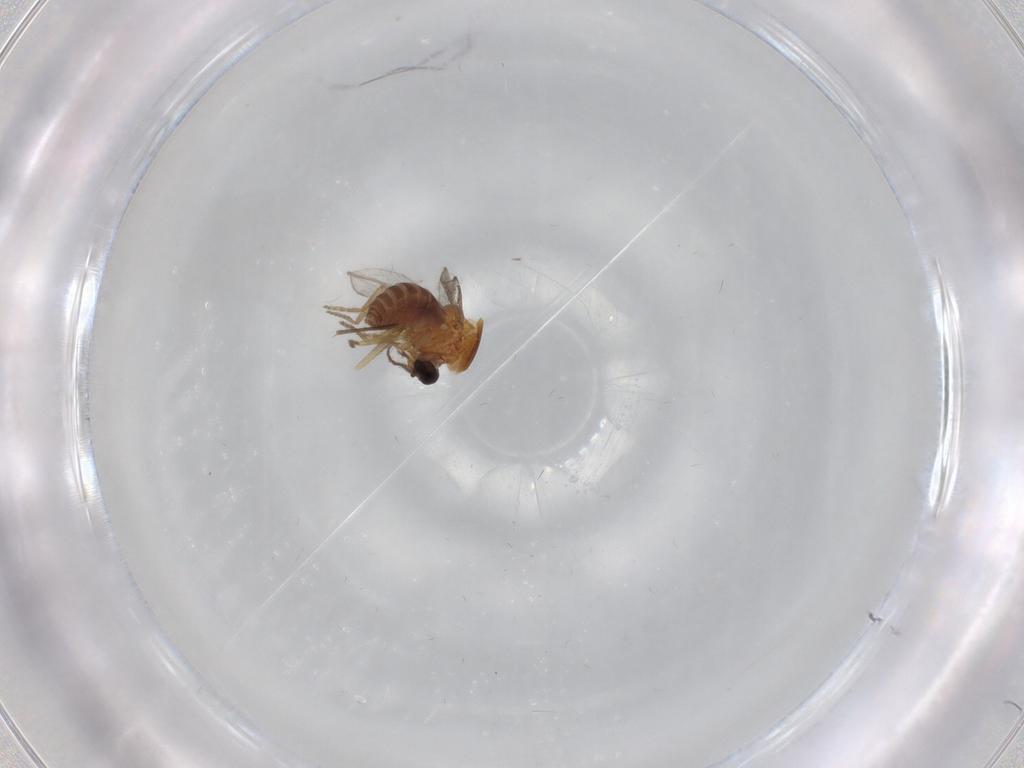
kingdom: Animalia
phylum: Arthropoda
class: Insecta
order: Diptera
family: Ceratopogonidae
